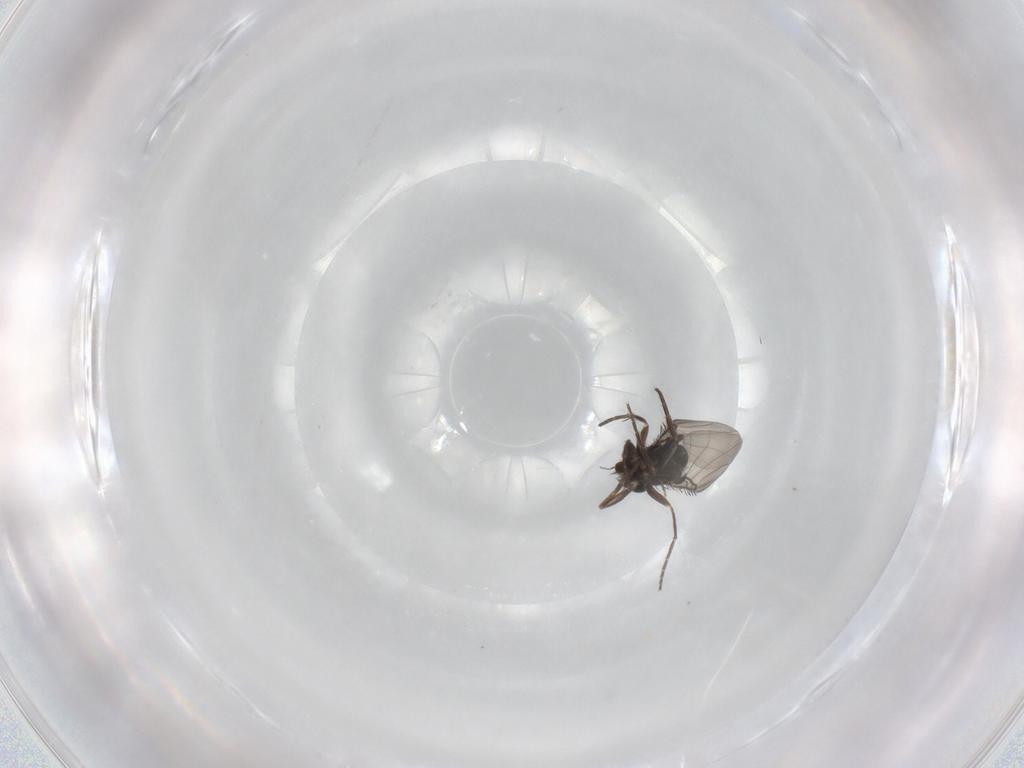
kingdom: Animalia
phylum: Arthropoda
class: Insecta
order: Diptera
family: Phoridae
